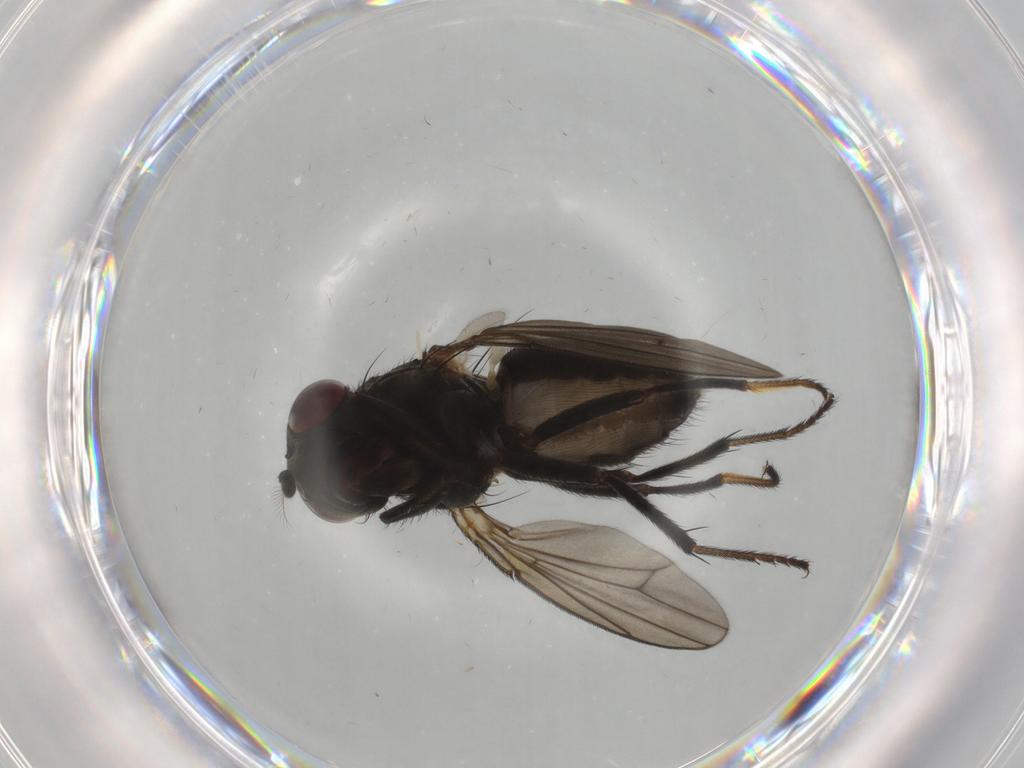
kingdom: Animalia
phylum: Arthropoda
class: Insecta
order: Diptera
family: Ephydridae
